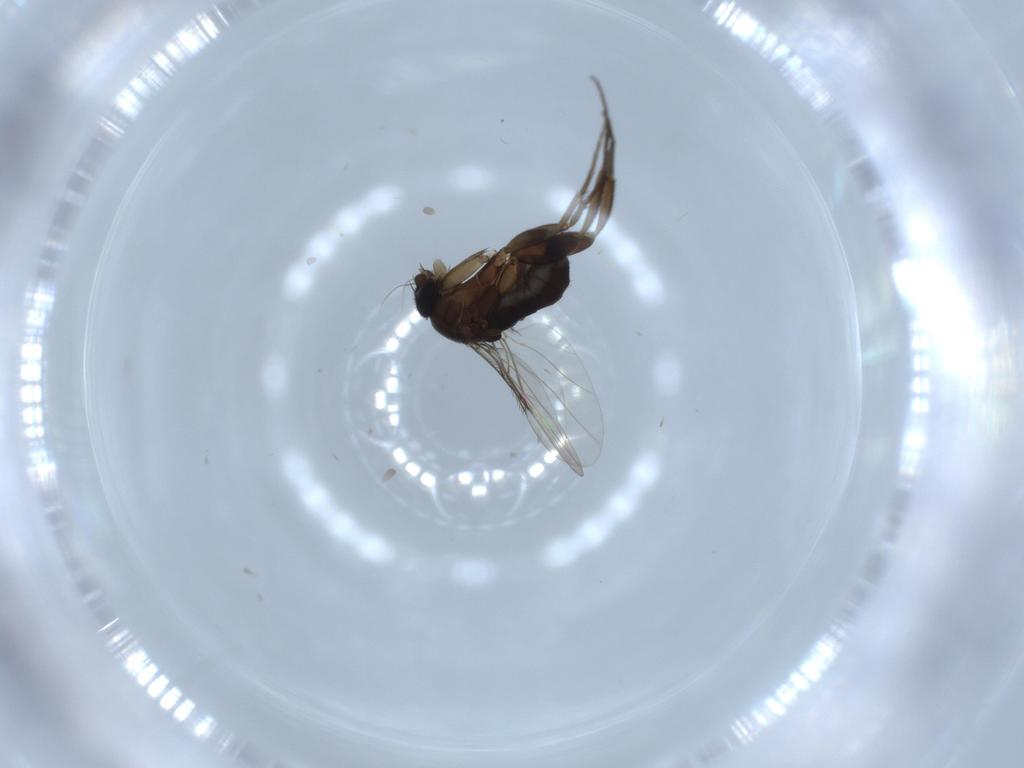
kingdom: Animalia
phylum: Arthropoda
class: Insecta
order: Diptera
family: Phoridae
